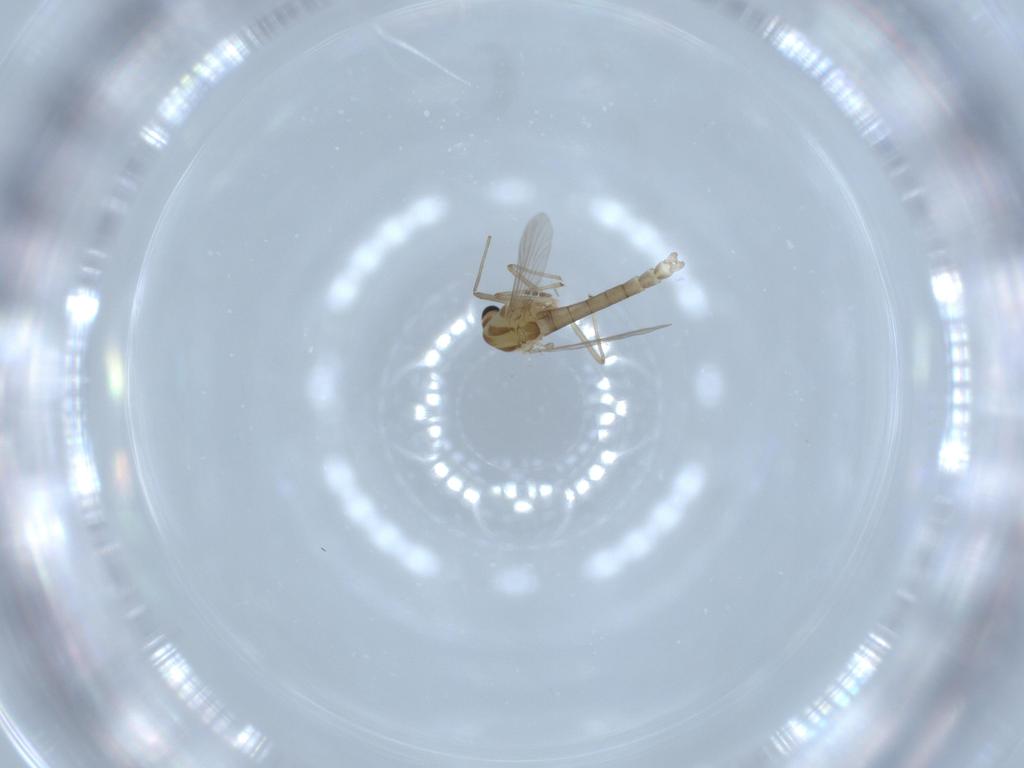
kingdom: Animalia
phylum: Arthropoda
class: Insecta
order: Diptera
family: Chironomidae
